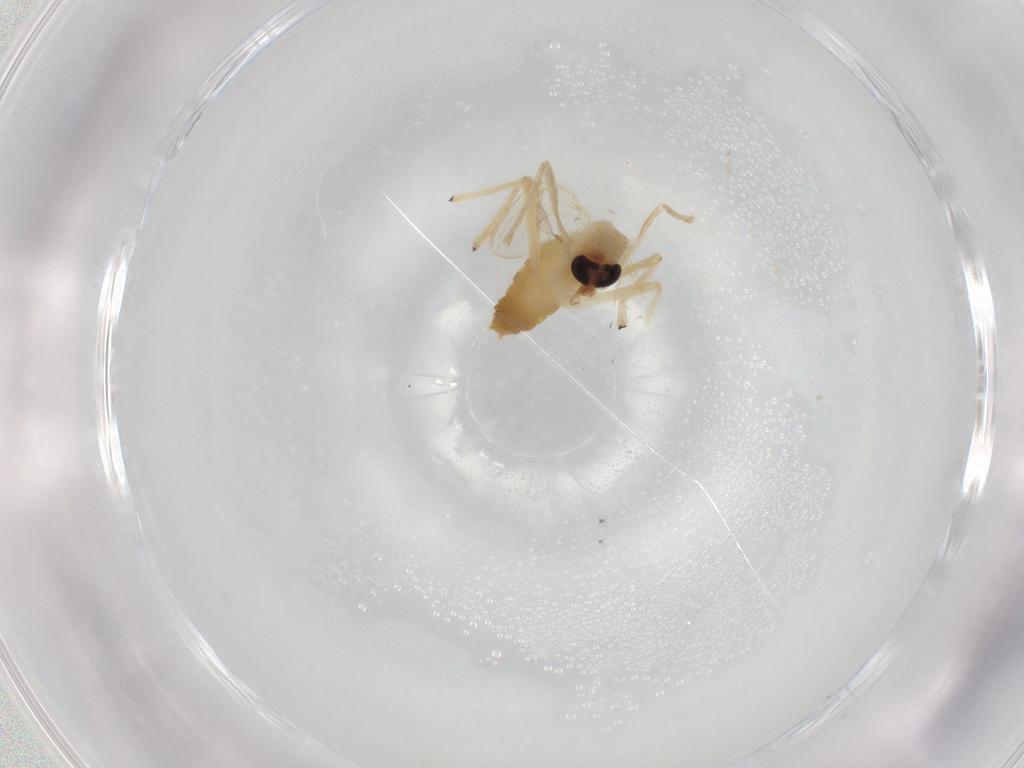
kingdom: Animalia
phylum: Arthropoda
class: Insecta
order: Diptera
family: Chironomidae
